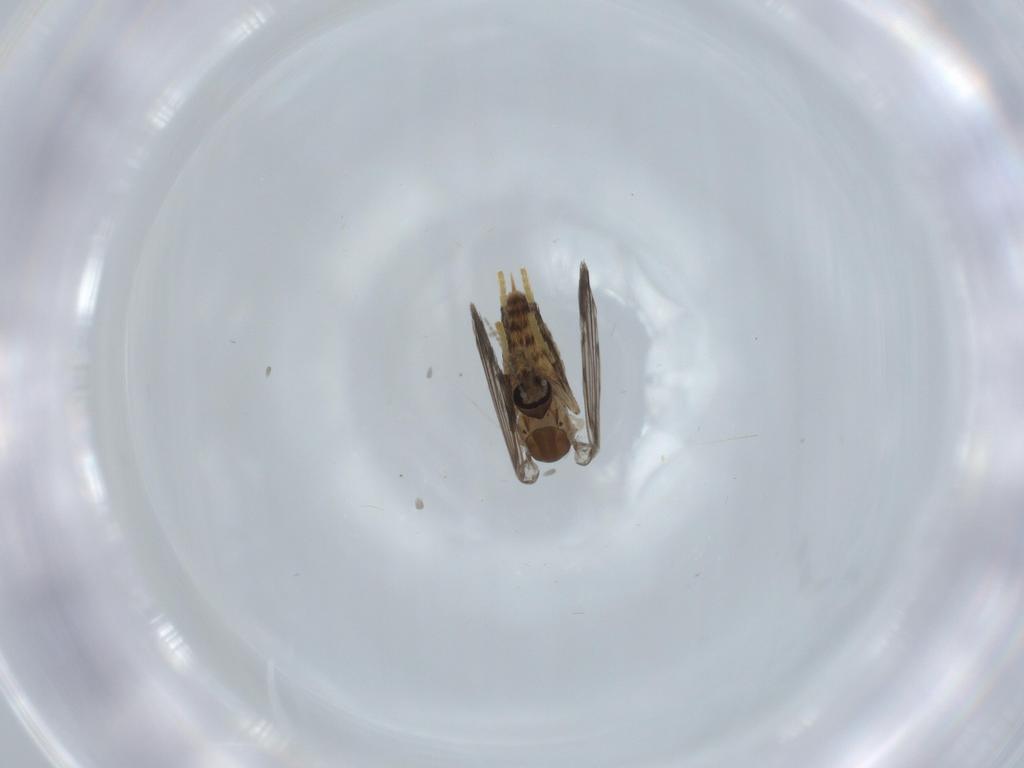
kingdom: Animalia
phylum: Arthropoda
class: Insecta
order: Diptera
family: Psychodidae
